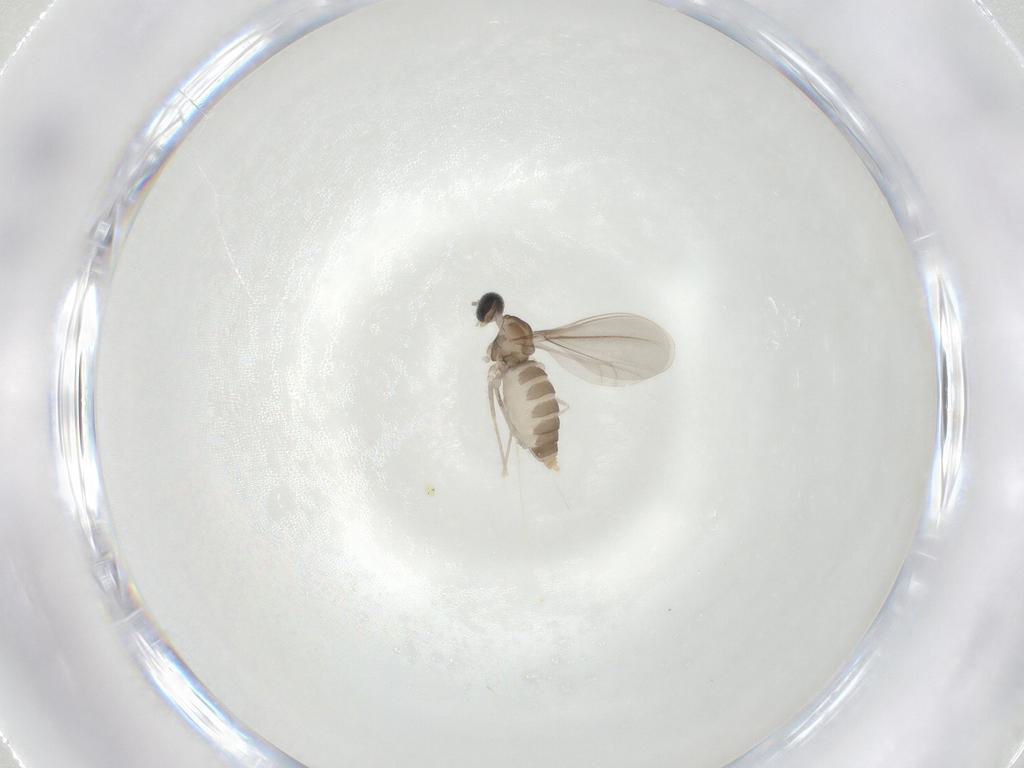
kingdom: Animalia
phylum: Arthropoda
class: Insecta
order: Diptera
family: Cecidomyiidae
